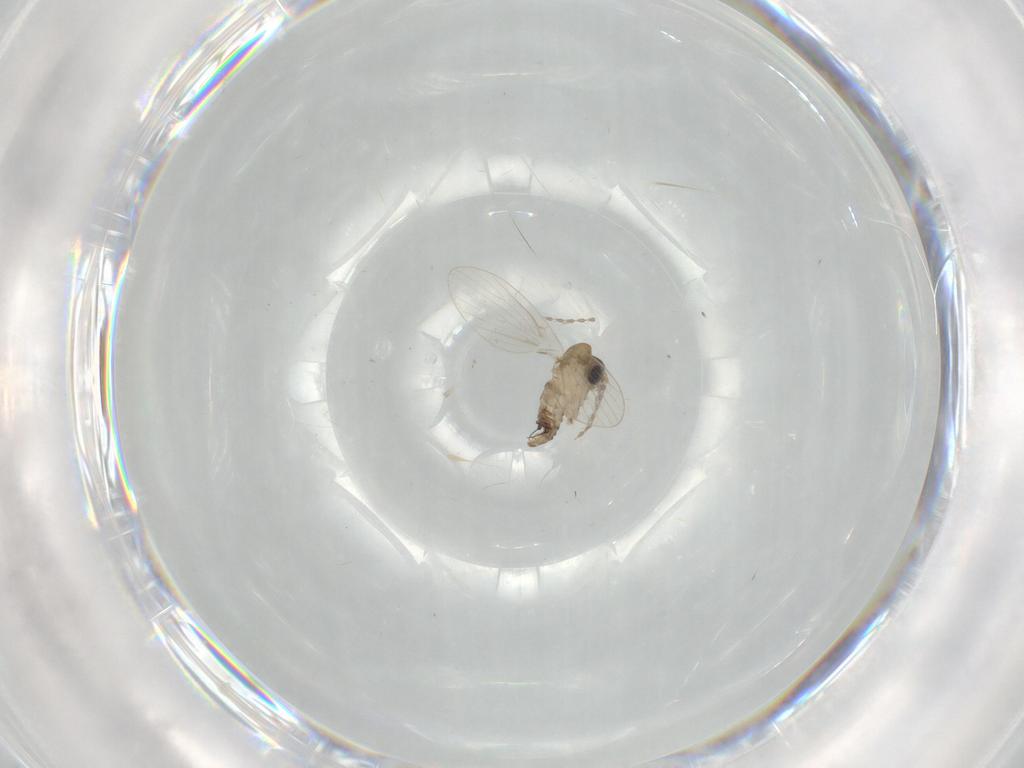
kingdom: Animalia
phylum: Arthropoda
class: Insecta
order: Diptera
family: Psychodidae
